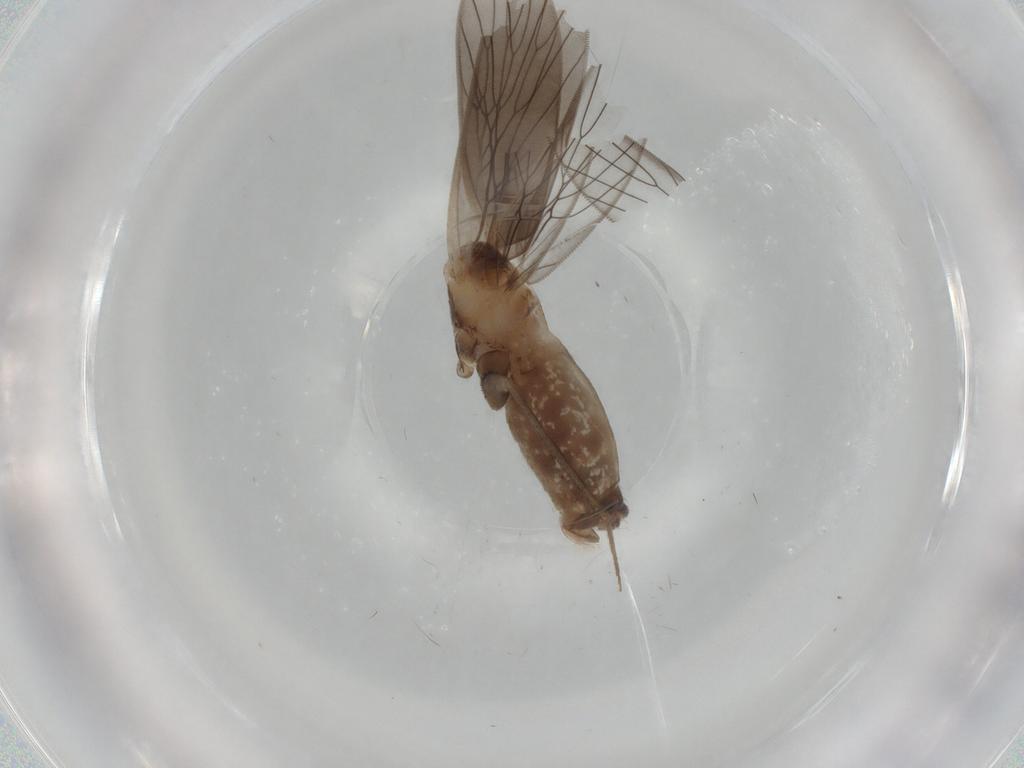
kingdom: Animalia
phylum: Arthropoda
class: Insecta
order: Psocodea
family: Lepidopsocidae
